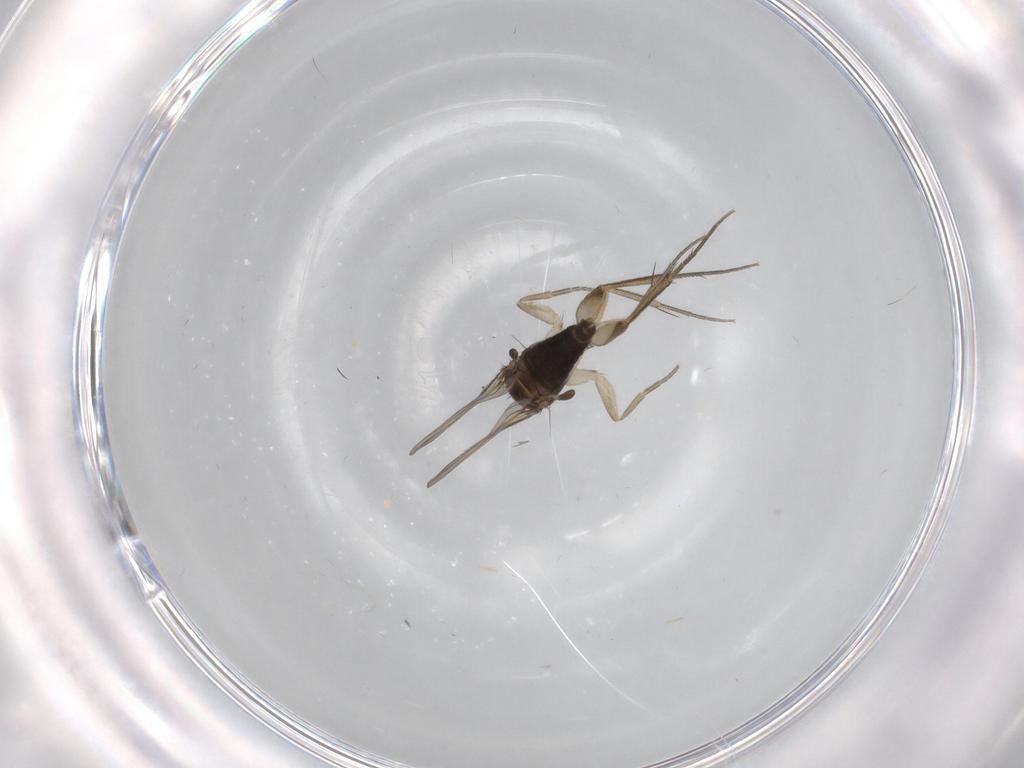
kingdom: Animalia
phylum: Arthropoda
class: Insecta
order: Diptera
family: Phoridae
